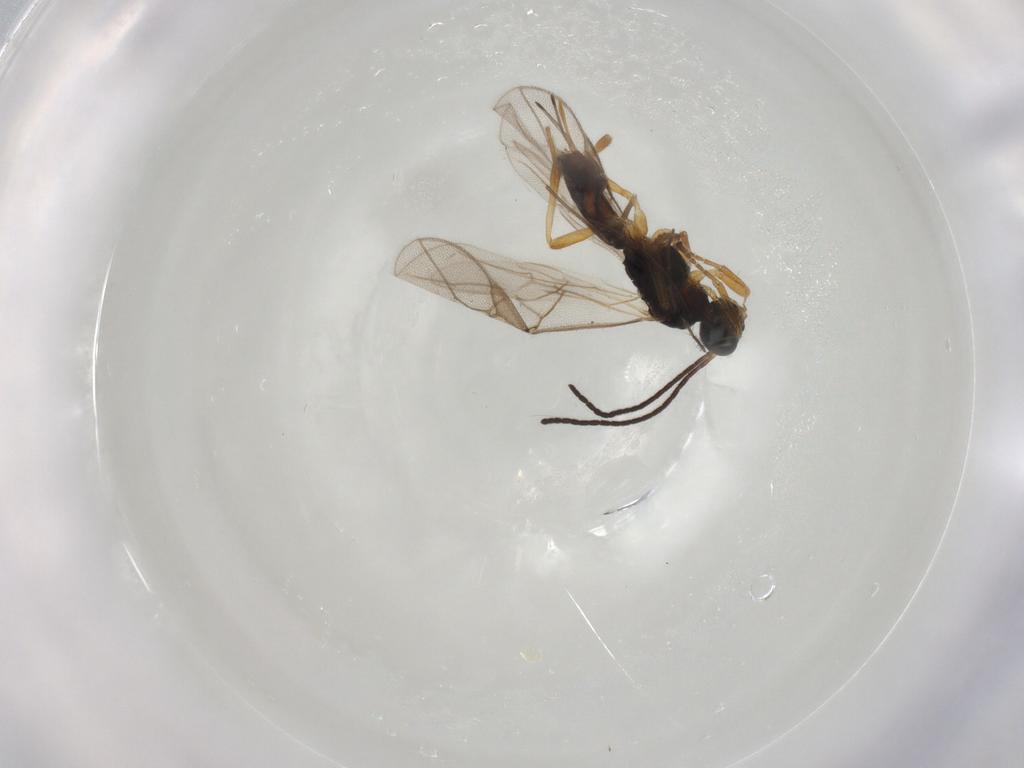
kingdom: Animalia
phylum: Arthropoda
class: Insecta
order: Hymenoptera
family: Braconidae
